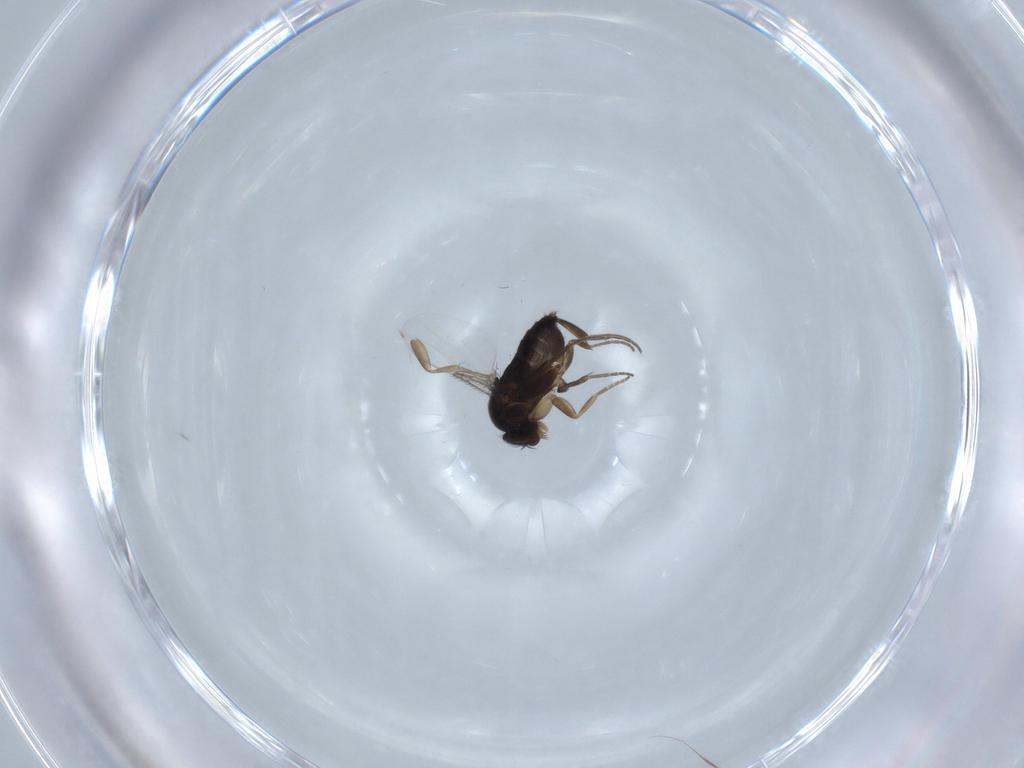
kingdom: Animalia
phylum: Arthropoda
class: Insecta
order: Diptera
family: Phoridae
